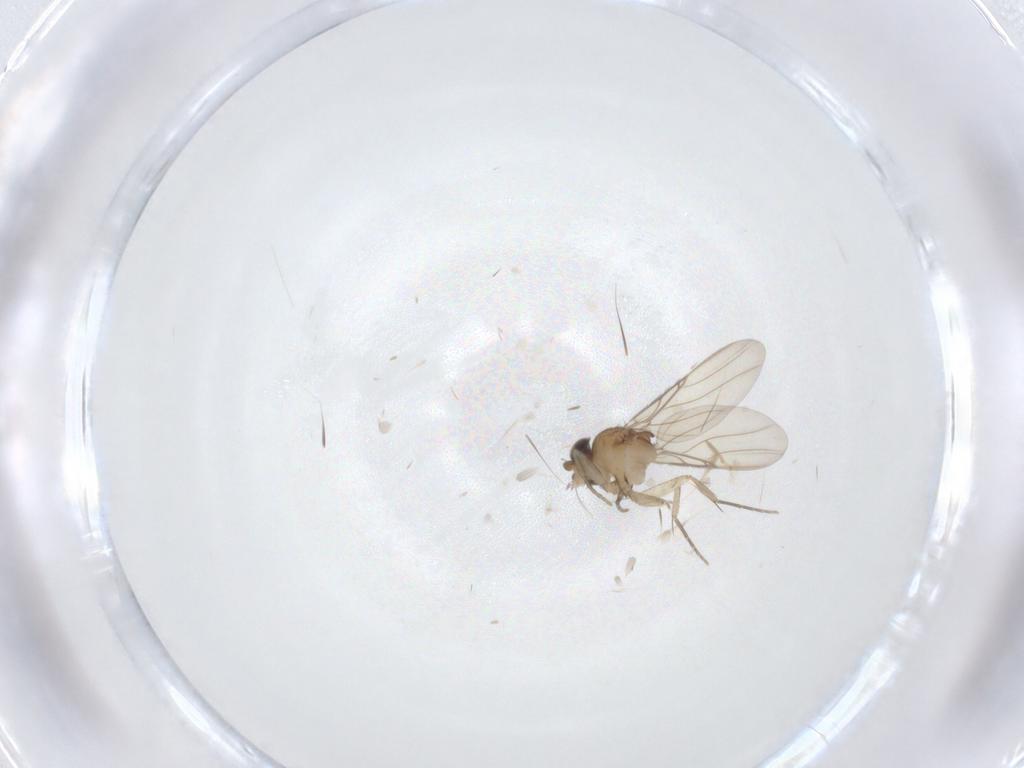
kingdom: Animalia
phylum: Arthropoda
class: Insecta
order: Diptera
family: Phoridae
